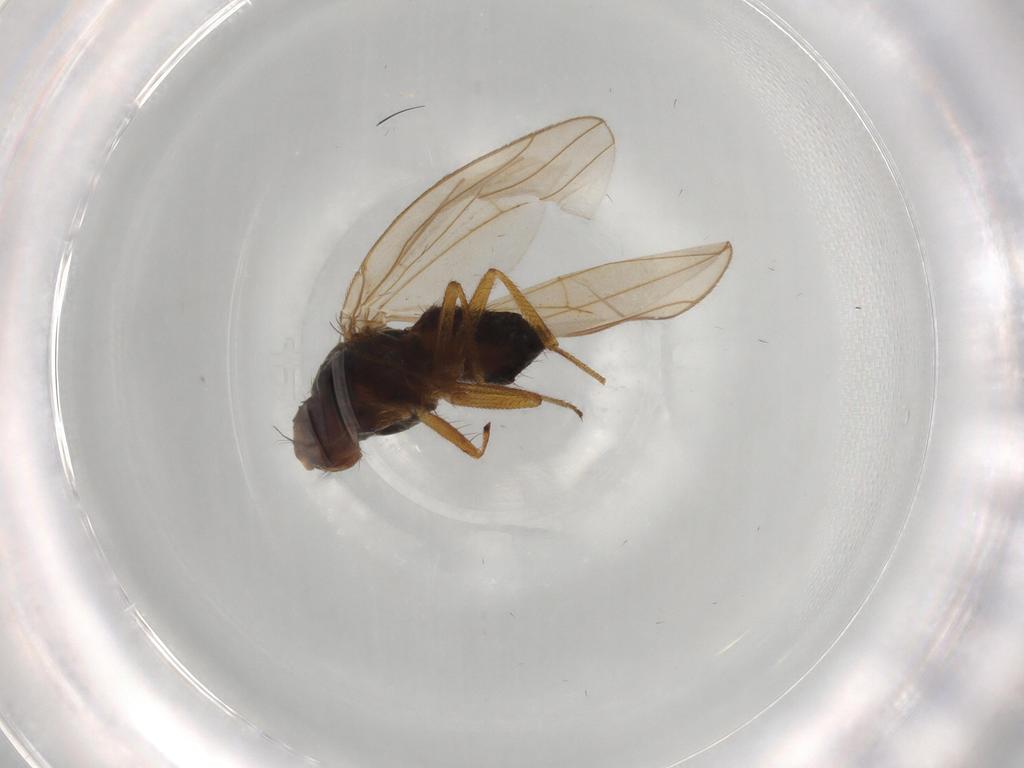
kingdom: Animalia
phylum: Arthropoda
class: Insecta
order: Diptera
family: Drosophilidae
